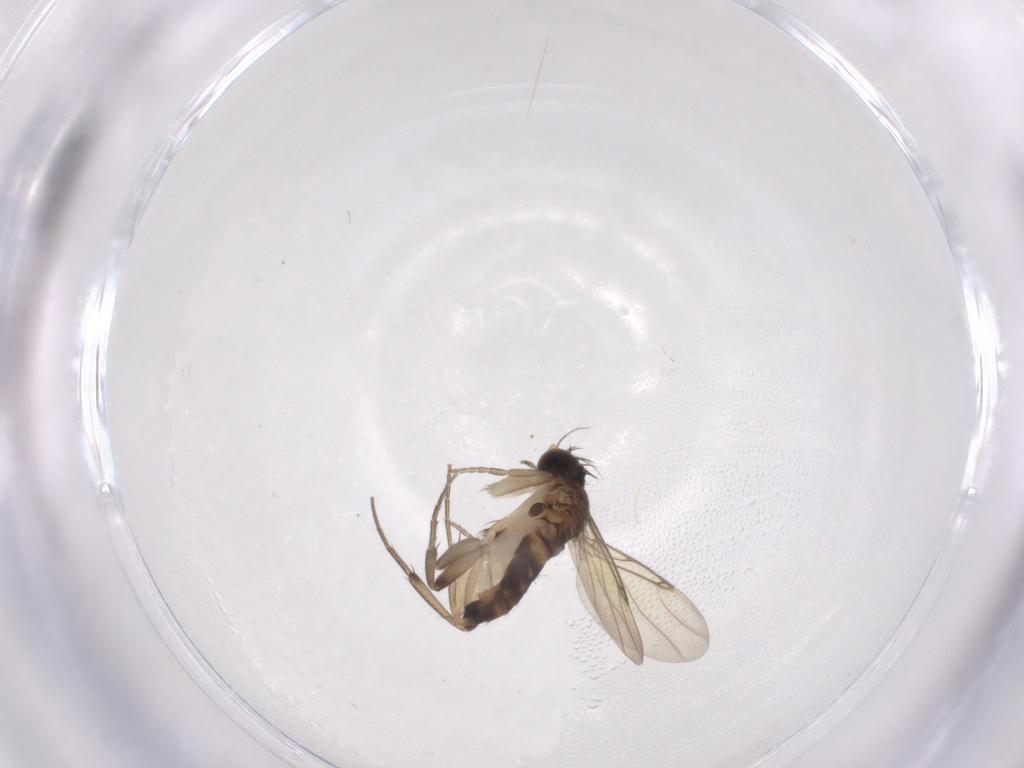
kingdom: Animalia
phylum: Arthropoda
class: Insecta
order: Diptera
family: Phoridae
